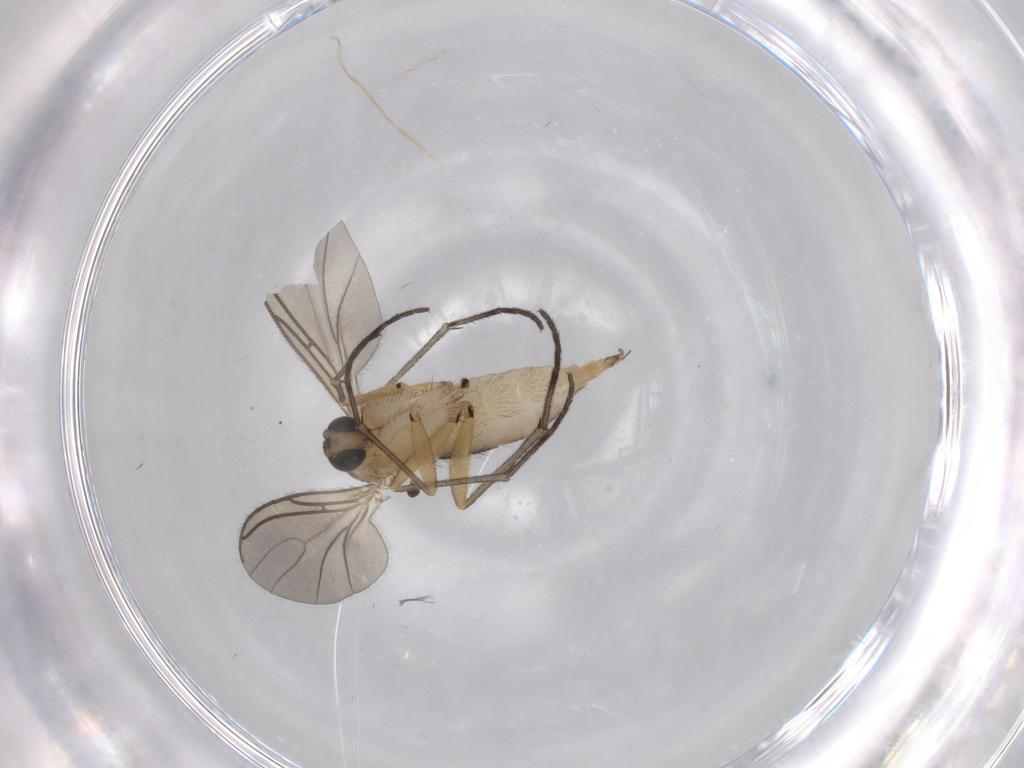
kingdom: Animalia
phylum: Arthropoda
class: Insecta
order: Diptera
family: Sciaridae
